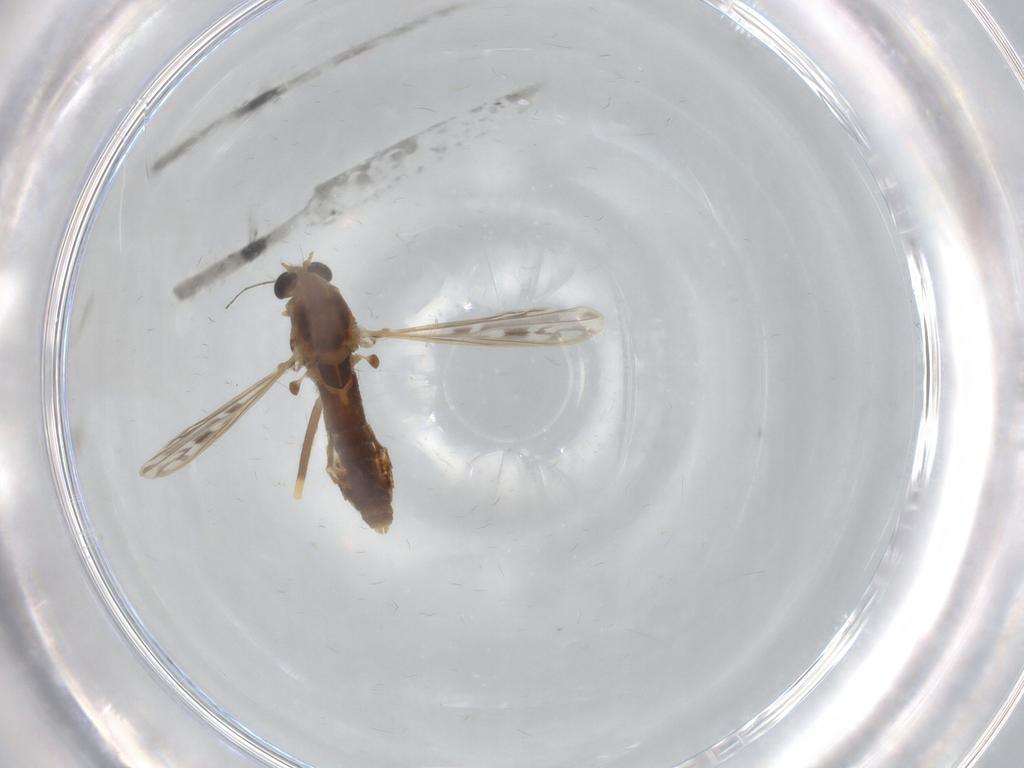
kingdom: Animalia
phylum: Arthropoda
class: Insecta
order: Diptera
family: Chironomidae
